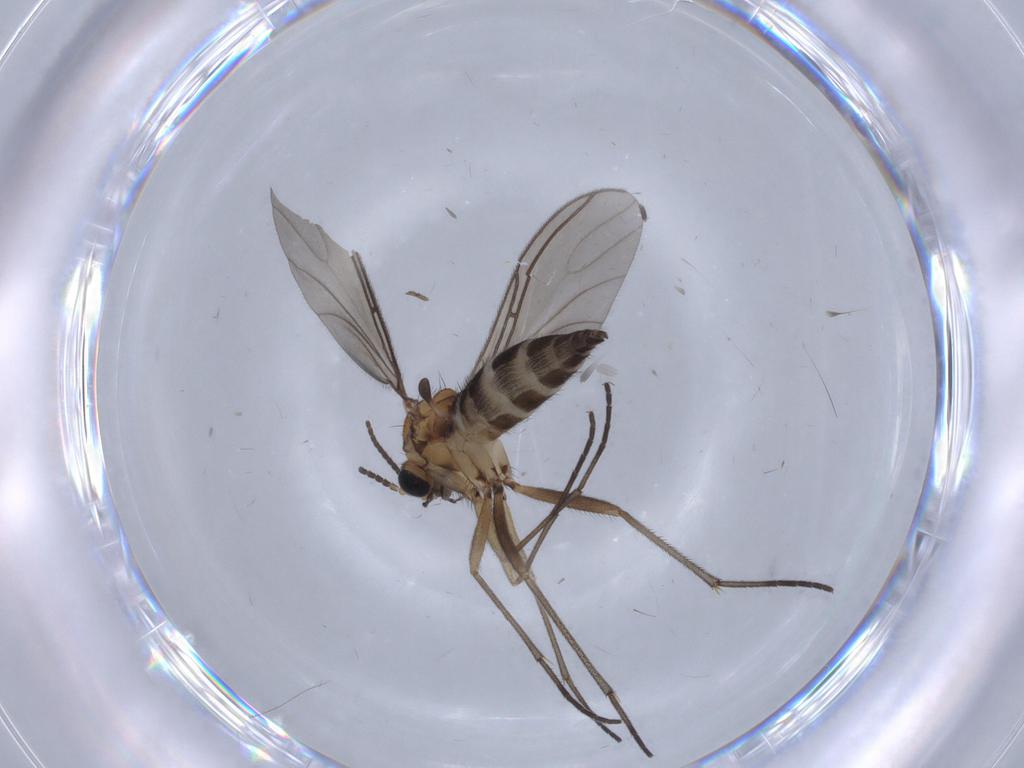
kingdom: Animalia
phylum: Arthropoda
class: Insecta
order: Diptera
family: Sciaridae
